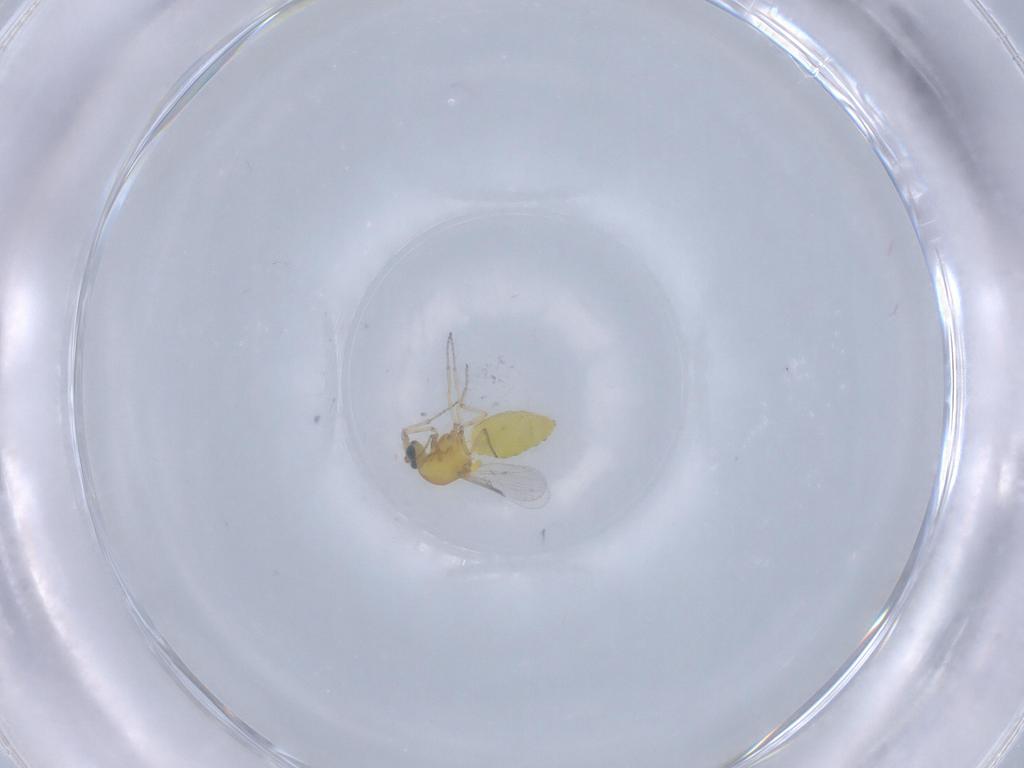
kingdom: Animalia
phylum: Arthropoda
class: Insecta
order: Diptera
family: Ceratopogonidae
